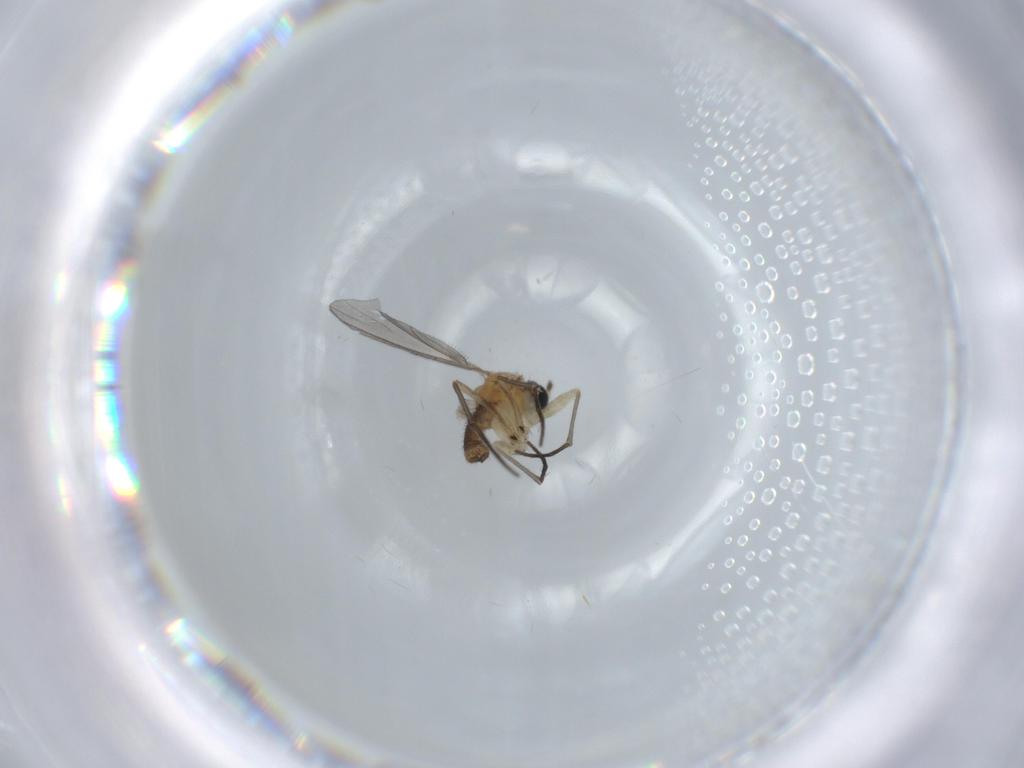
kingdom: Animalia
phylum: Arthropoda
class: Insecta
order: Diptera
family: Sciaridae
